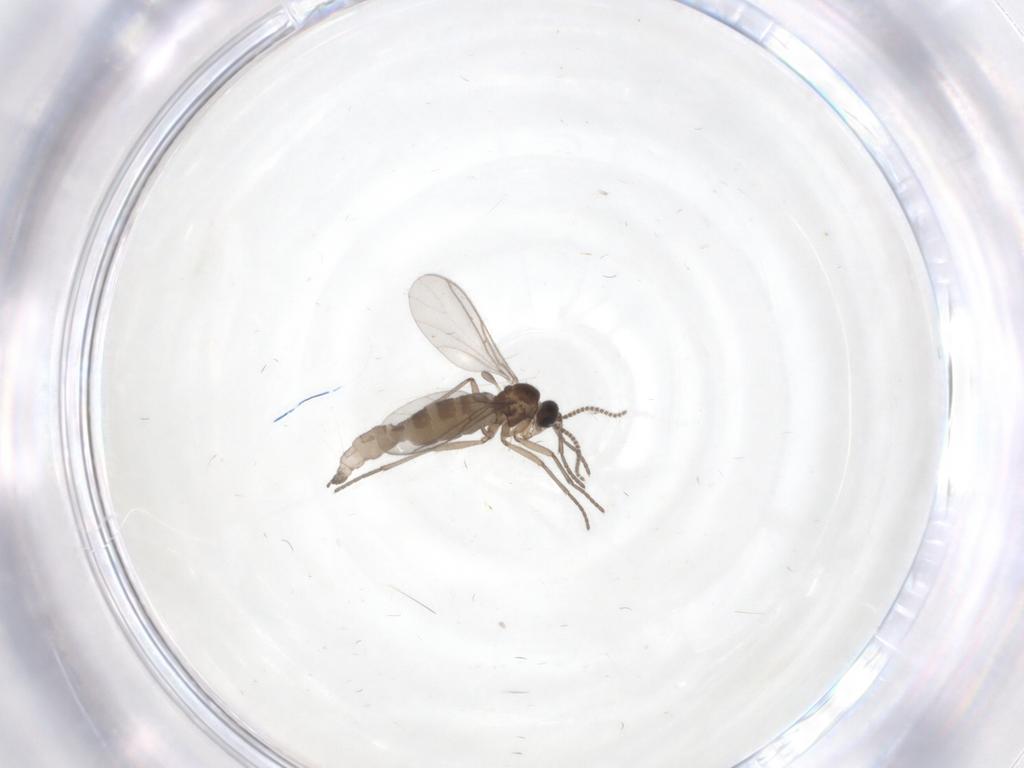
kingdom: Animalia
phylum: Arthropoda
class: Insecta
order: Diptera
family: Cecidomyiidae
